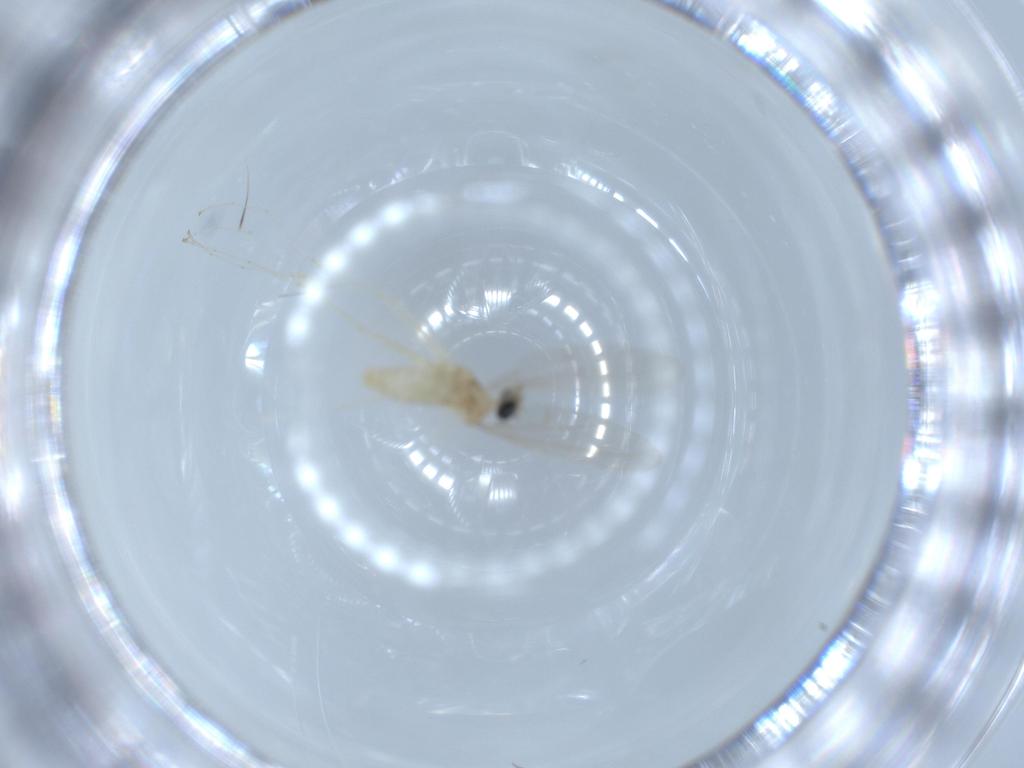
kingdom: Animalia
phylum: Arthropoda
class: Insecta
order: Diptera
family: Cecidomyiidae
